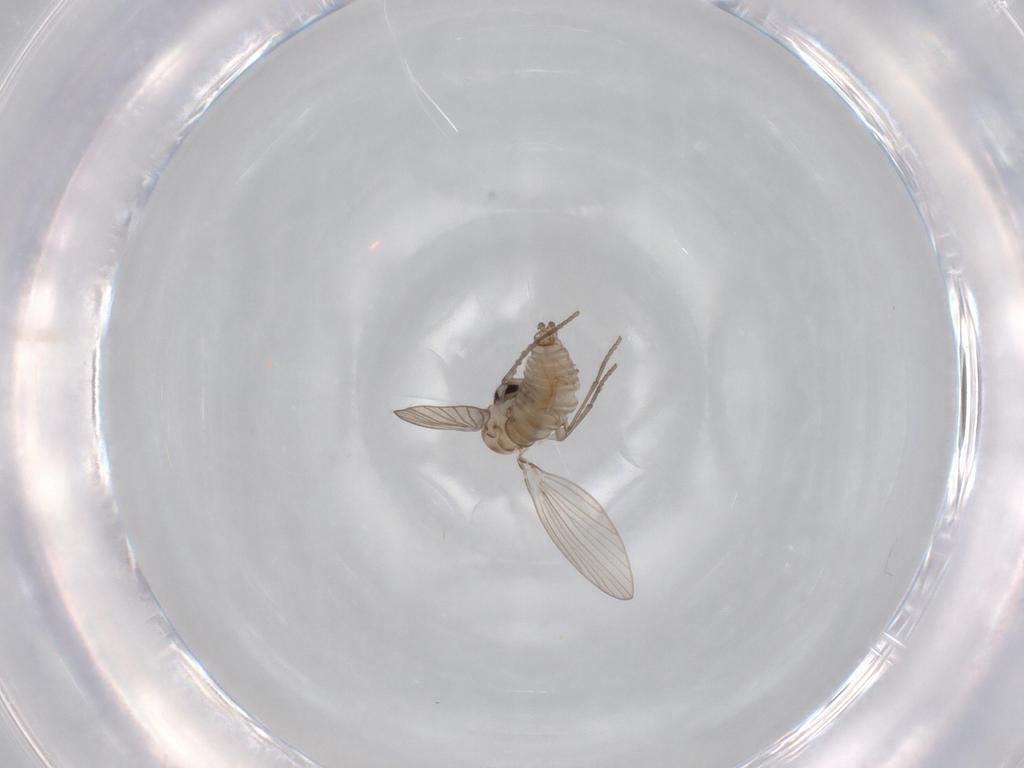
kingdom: Animalia
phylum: Arthropoda
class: Insecta
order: Diptera
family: Psychodidae
